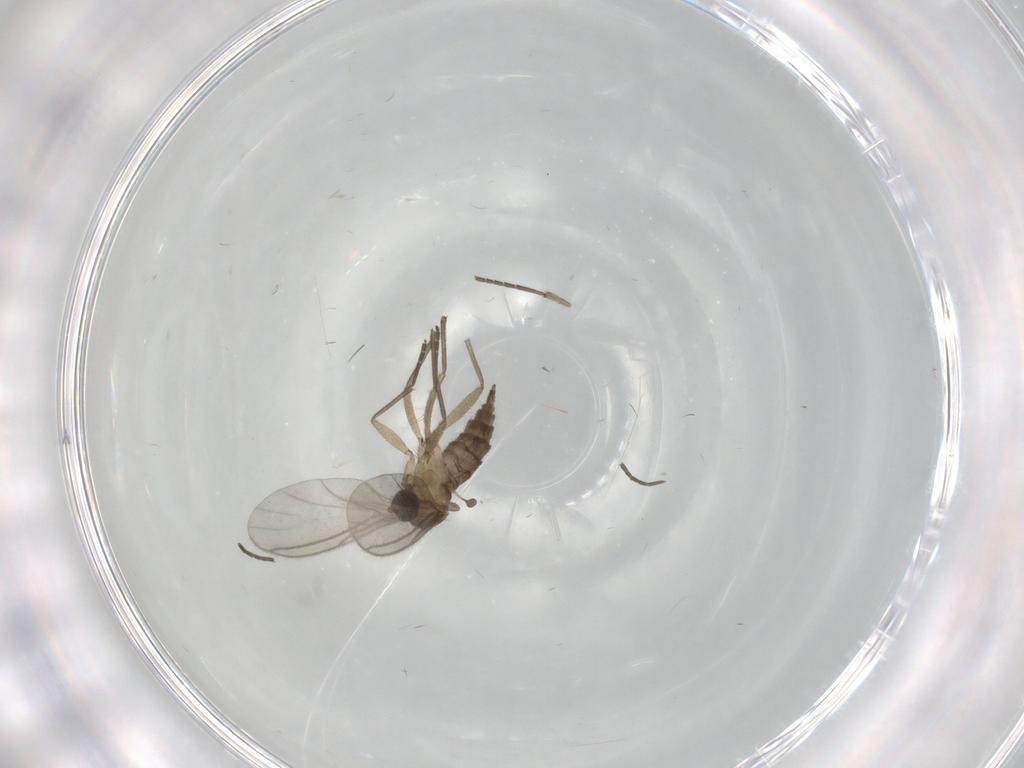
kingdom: Animalia
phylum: Arthropoda
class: Insecta
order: Diptera
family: Sciaridae
